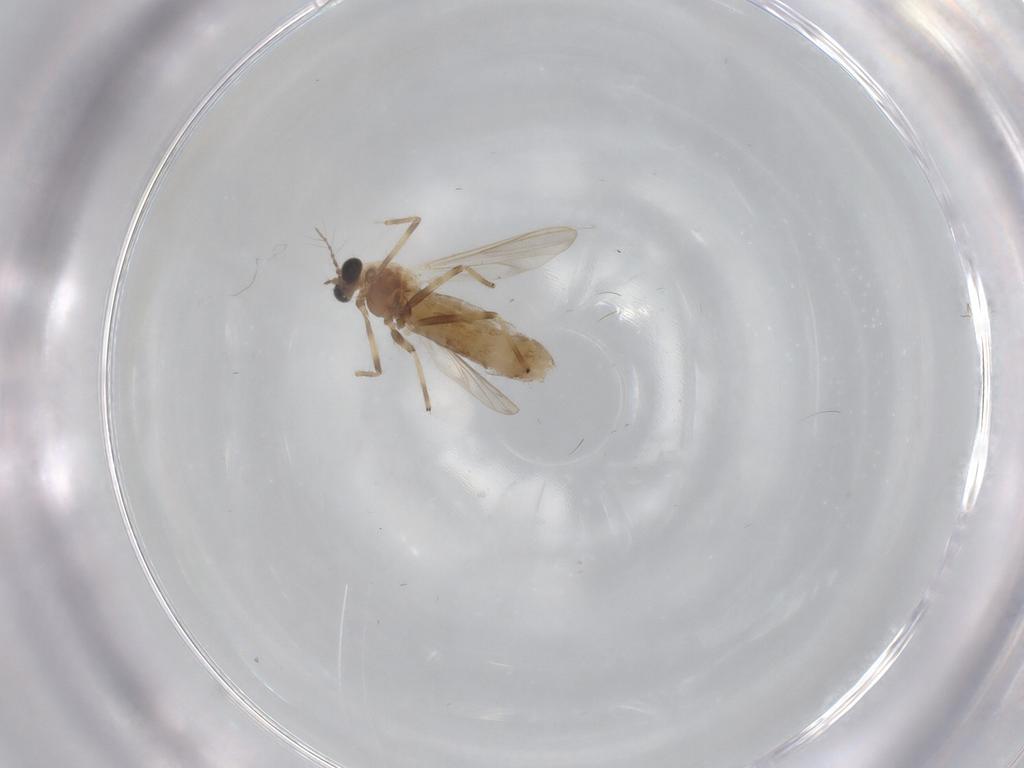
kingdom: Animalia
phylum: Arthropoda
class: Insecta
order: Diptera
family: Chironomidae
